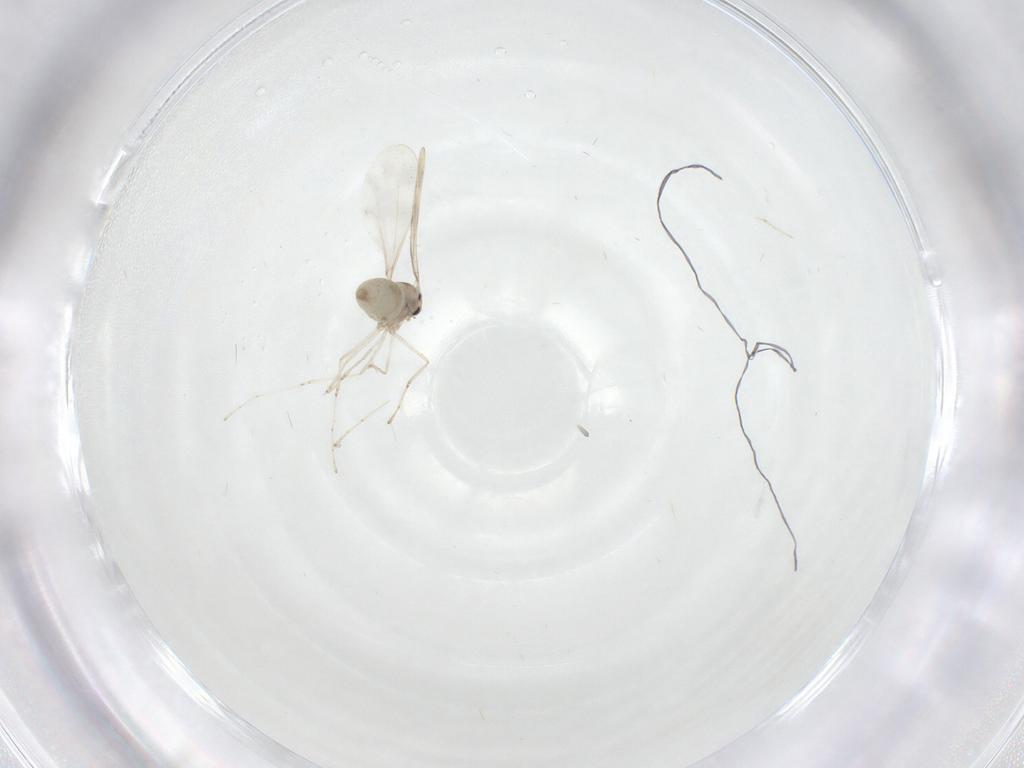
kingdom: Animalia
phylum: Arthropoda
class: Insecta
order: Diptera
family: Cecidomyiidae
